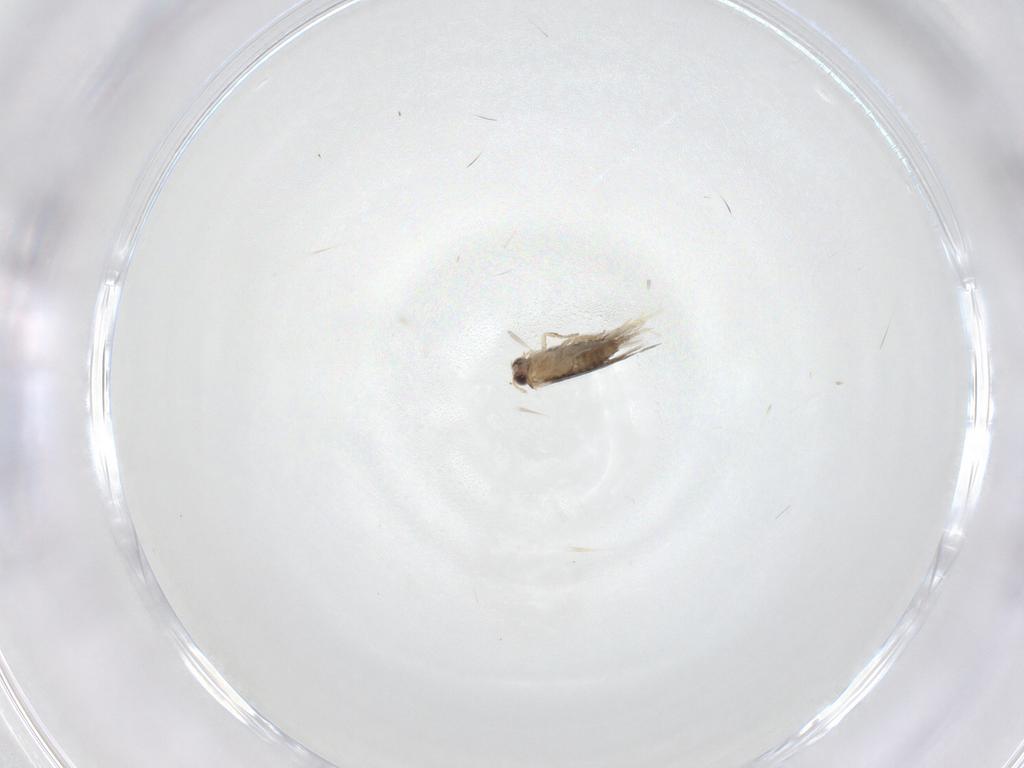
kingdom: Animalia
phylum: Arthropoda
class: Insecta
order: Lepidoptera
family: Nepticulidae
